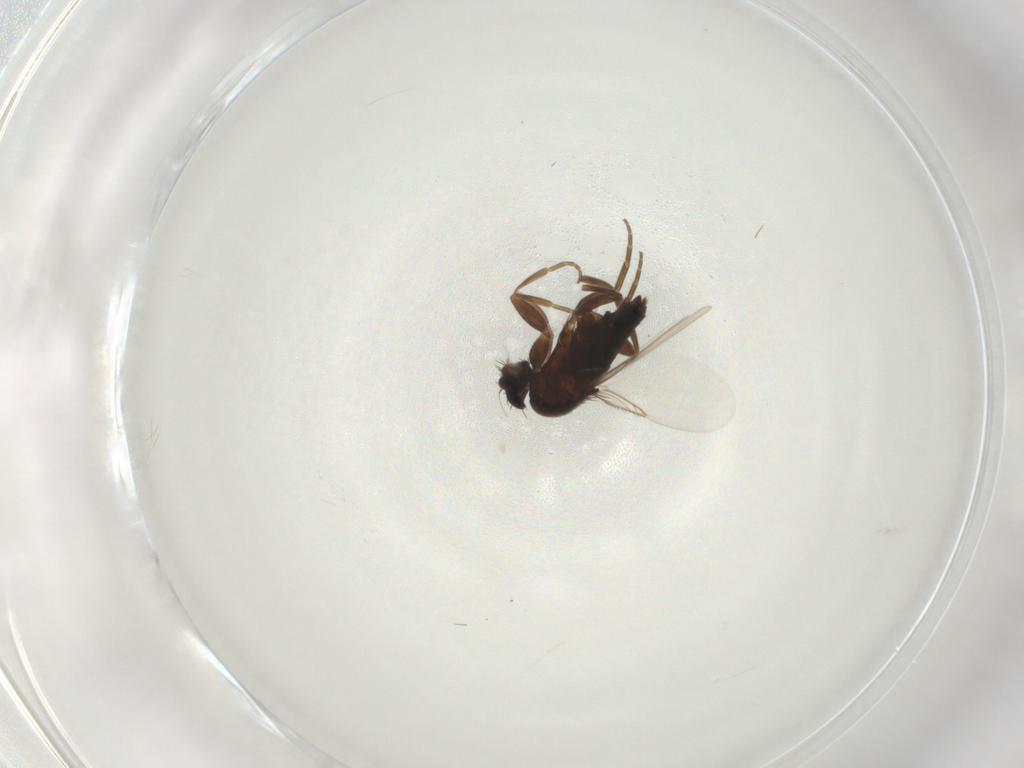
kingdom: Animalia
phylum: Arthropoda
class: Insecta
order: Diptera
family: Phoridae
